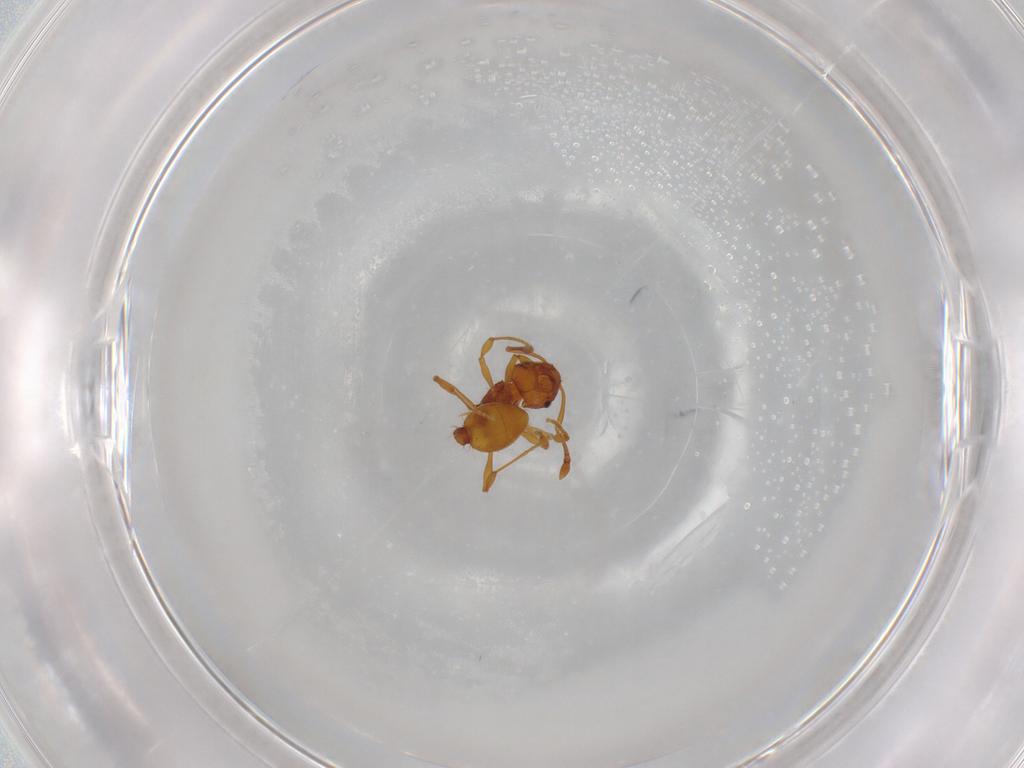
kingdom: Animalia
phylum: Arthropoda
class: Insecta
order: Hymenoptera
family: Formicidae
